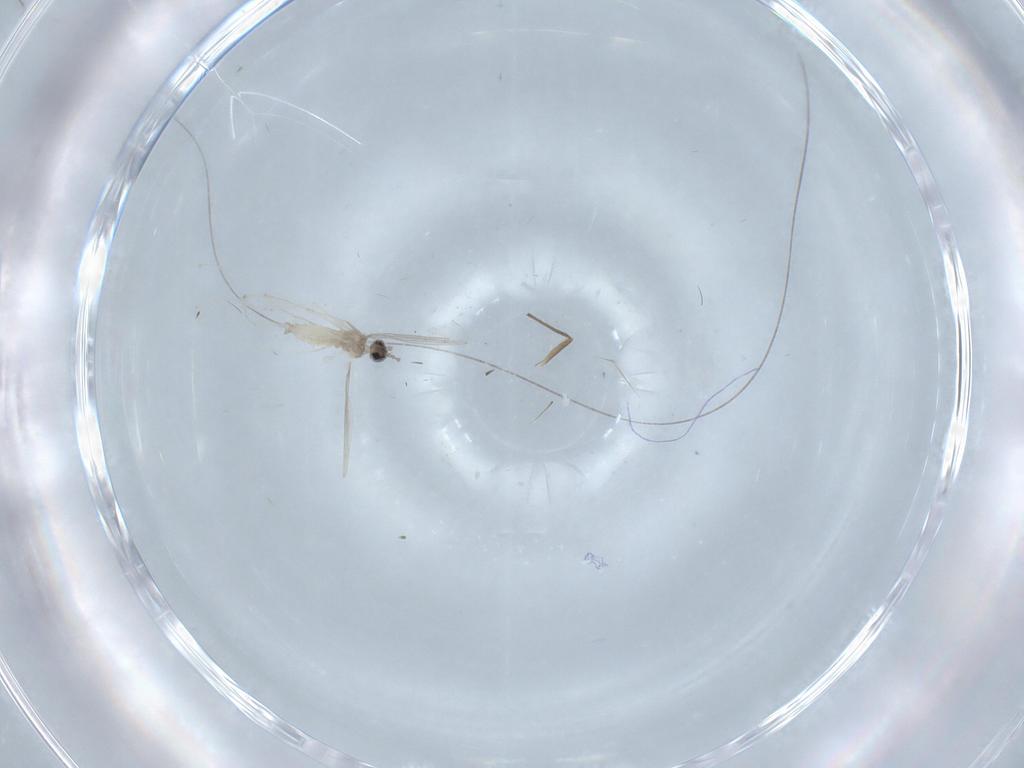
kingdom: Animalia
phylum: Arthropoda
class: Insecta
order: Diptera
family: Cecidomyiidae
